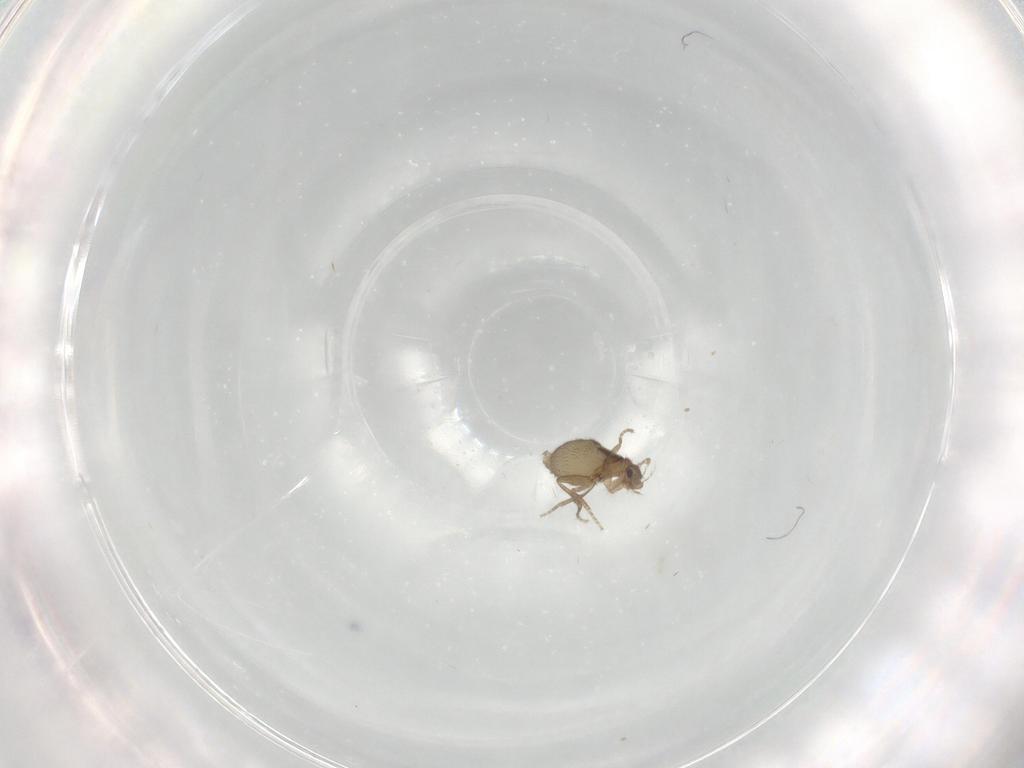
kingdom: Animalia
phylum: Arthropoda
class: Insecta
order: Diptera
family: Phoridae
